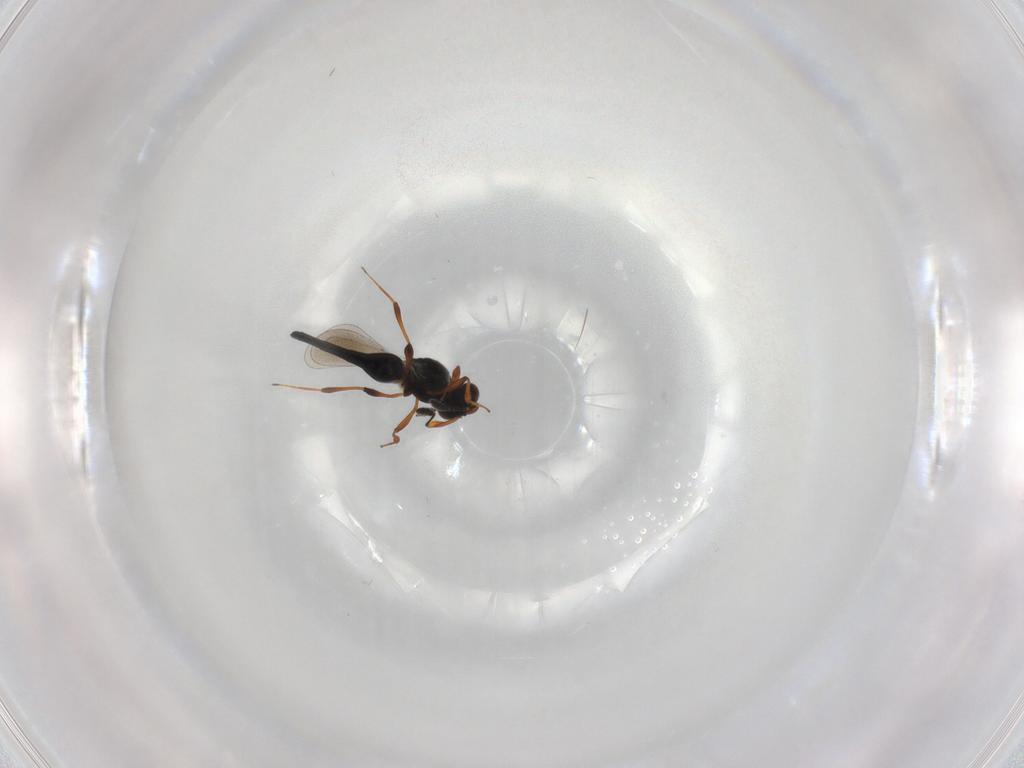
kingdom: Animalia
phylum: Arthropoda
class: Insecta
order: Hymenoptera
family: Platygastridae
